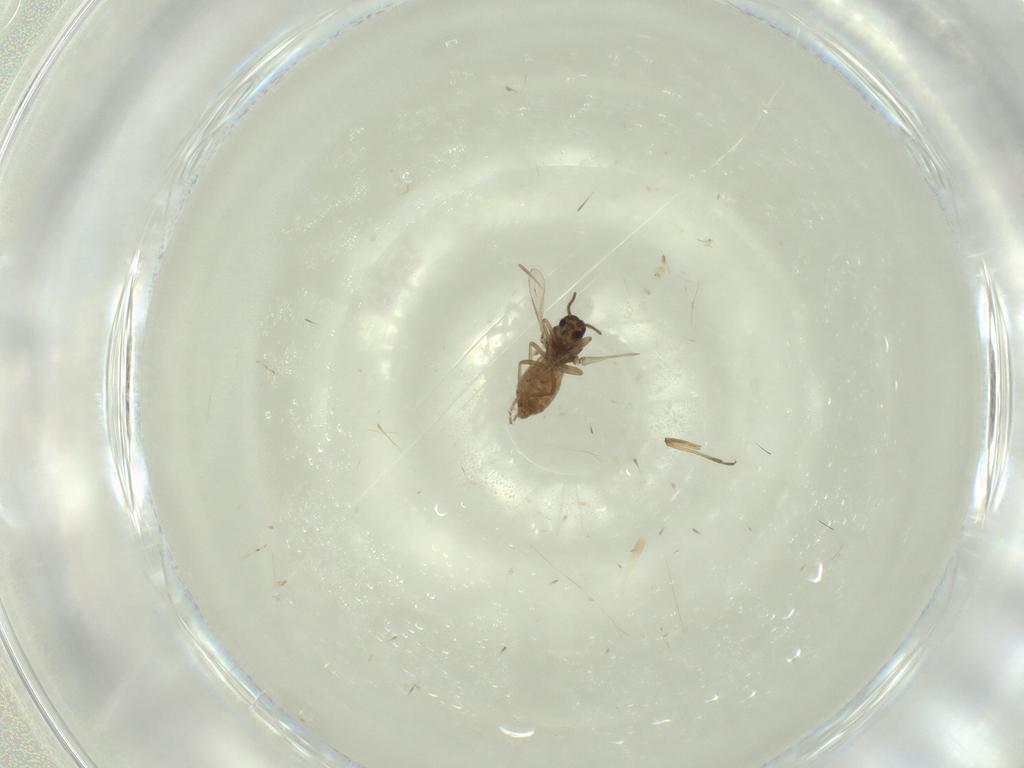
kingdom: Animalia
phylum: Arthropoda
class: Insecta
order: Diptera
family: Ceratopogonidae
